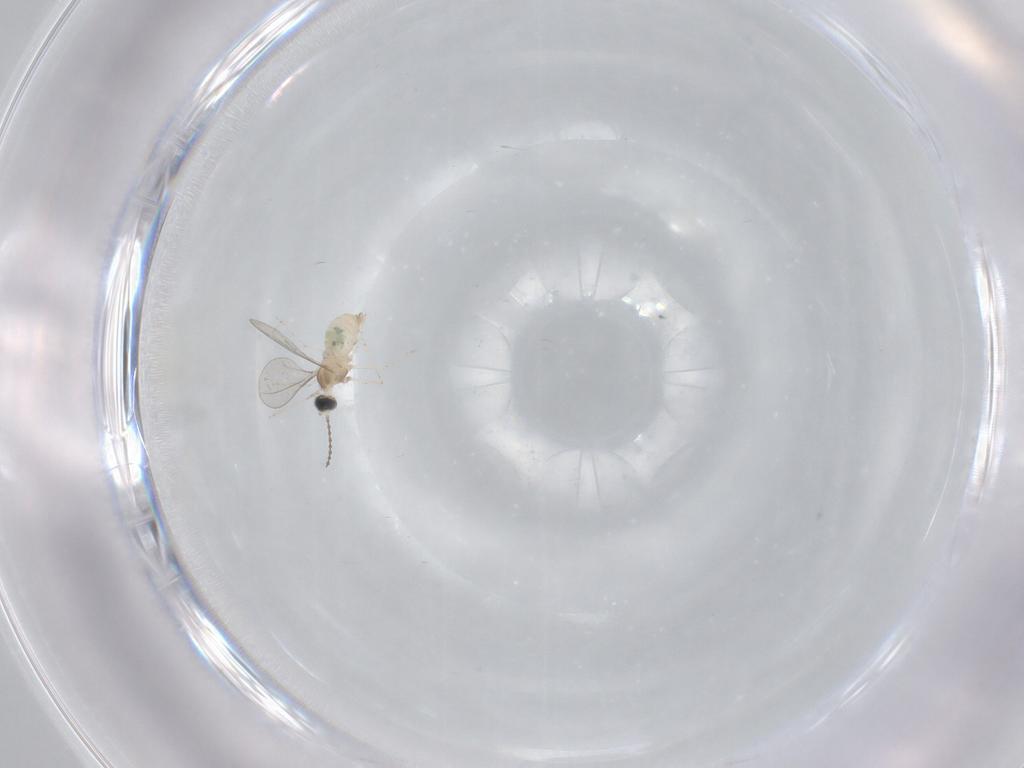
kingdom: Animalia
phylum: Arthropoda
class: Insecta
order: Diptera
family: Cecidomyiidae
